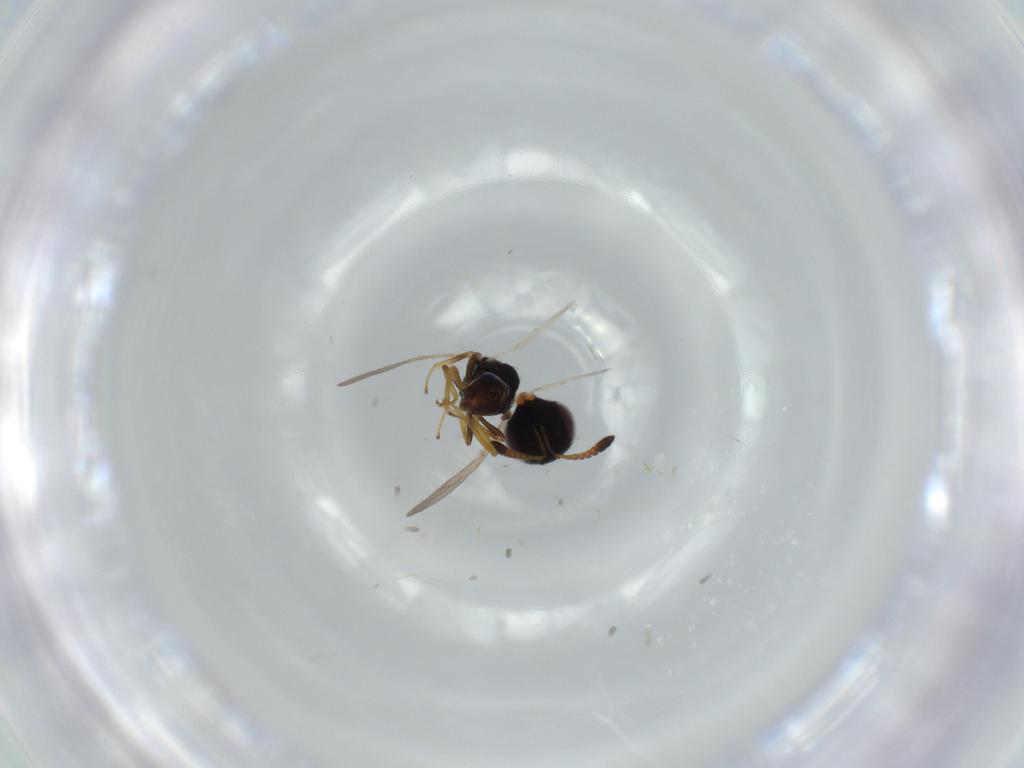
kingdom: Animalia
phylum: Arthropoda
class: Insecta
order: Hymenoptera
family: Pteromalidae
